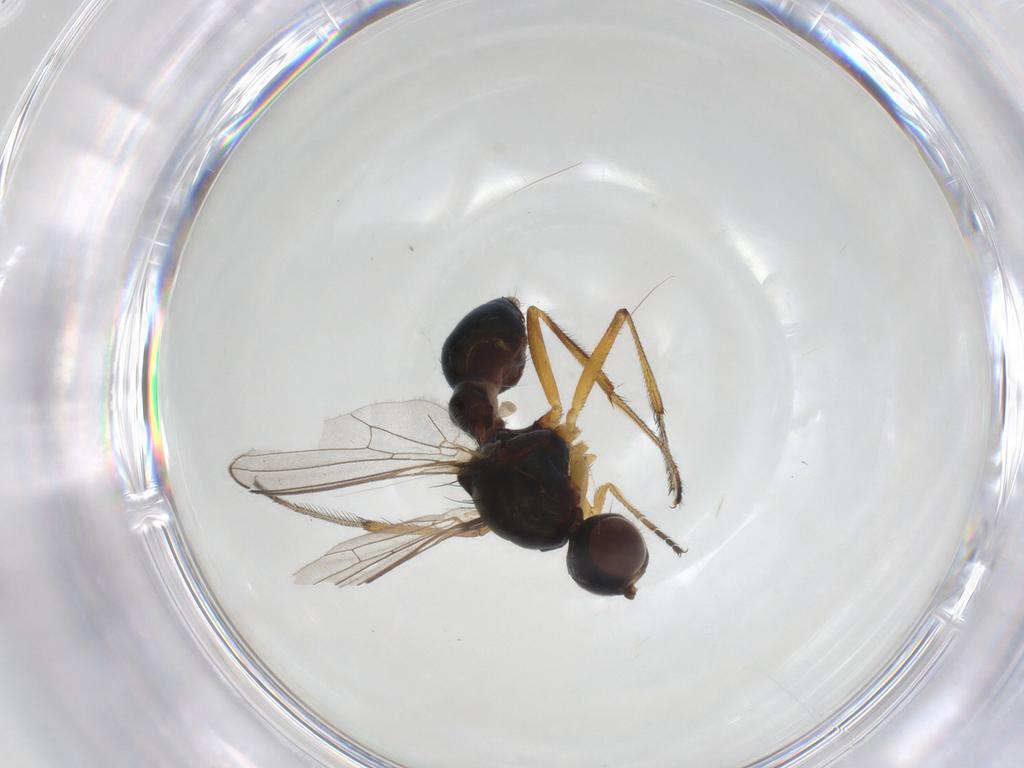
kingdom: Animalia
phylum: Arthropoda
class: Insecta
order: Diptera
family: Sepsidae
